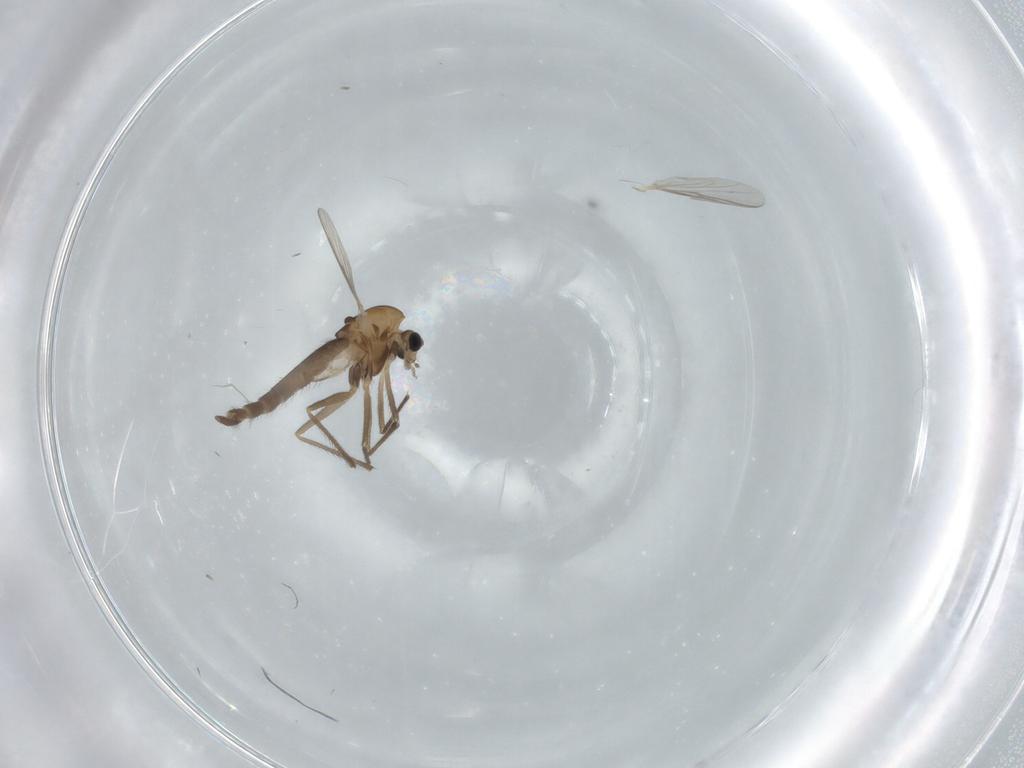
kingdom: Animalia
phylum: Arthropoda
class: Insecta
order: Diptera
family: Chironomidae
